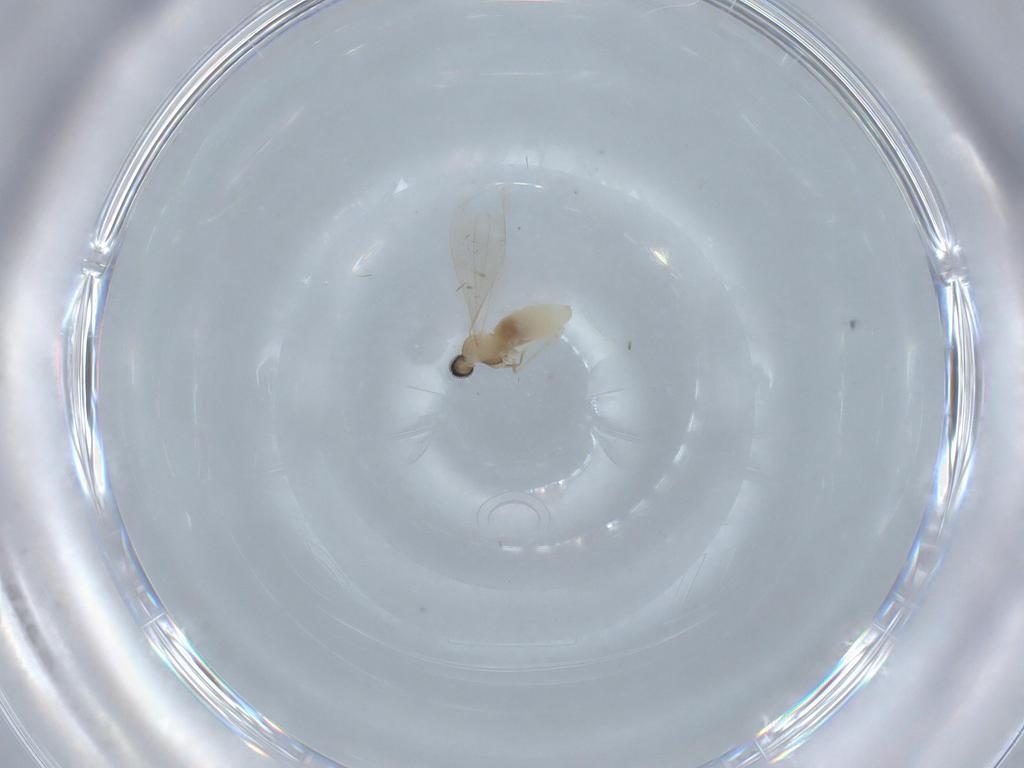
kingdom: Animalia
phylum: Arthropoda
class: Insecta
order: Diptera
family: Cecidomyiidae
